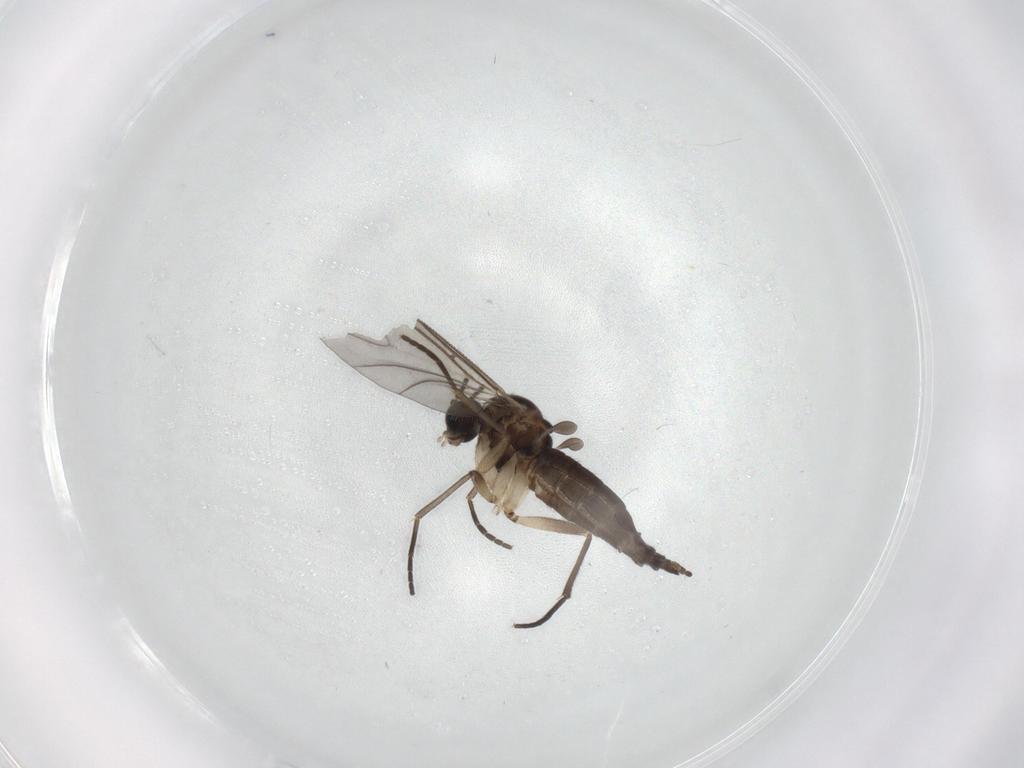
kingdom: Animalia
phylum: Arthropoda
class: Insecta
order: Diptera
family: Sciaridae
